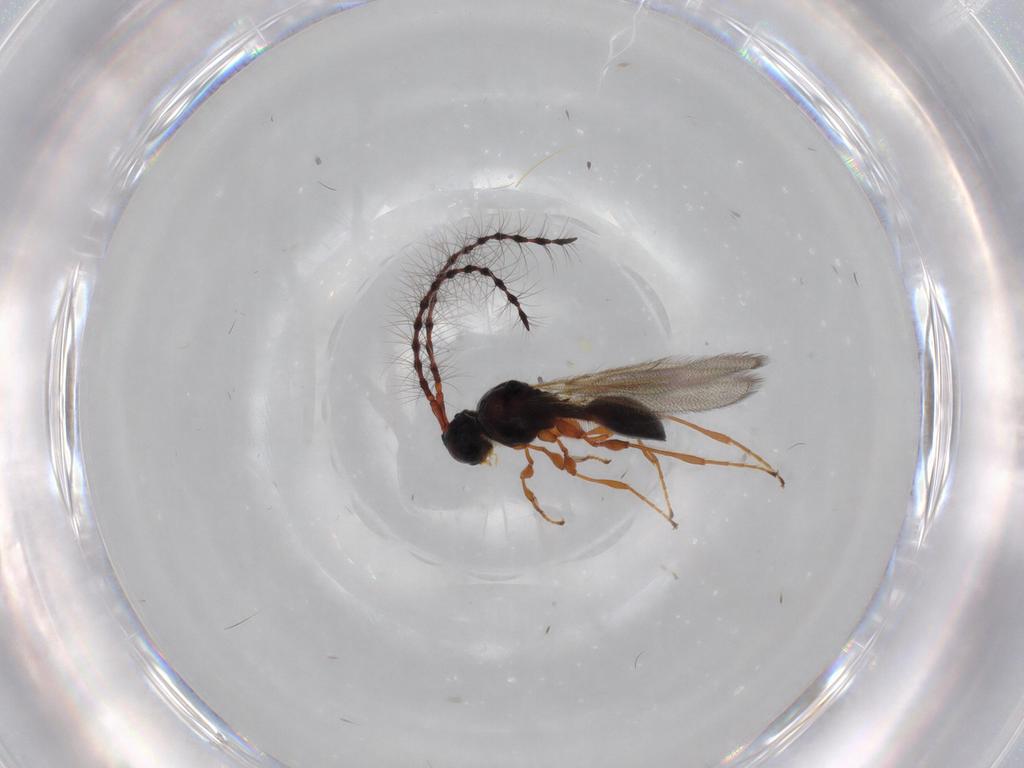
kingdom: Animalia
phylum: Arthropoda
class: Insecta
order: Hymenoptera
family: Diapriidae
